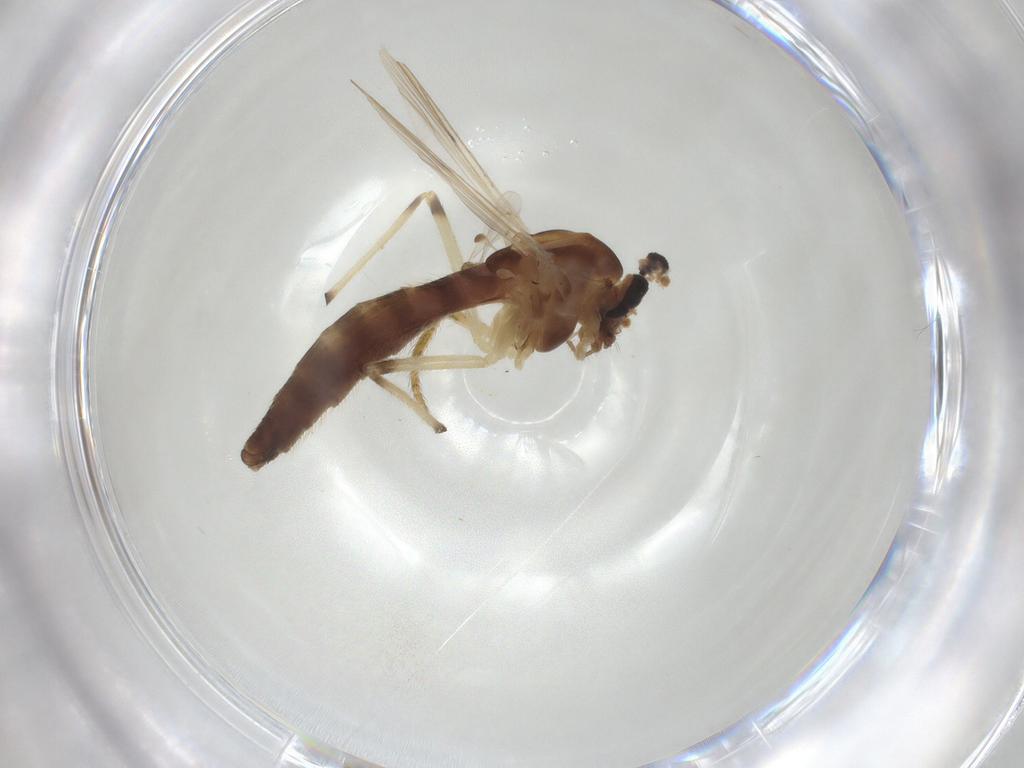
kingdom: Animalia
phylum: Arthropoda
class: Insecta
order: Diptera
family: Chironomidae
